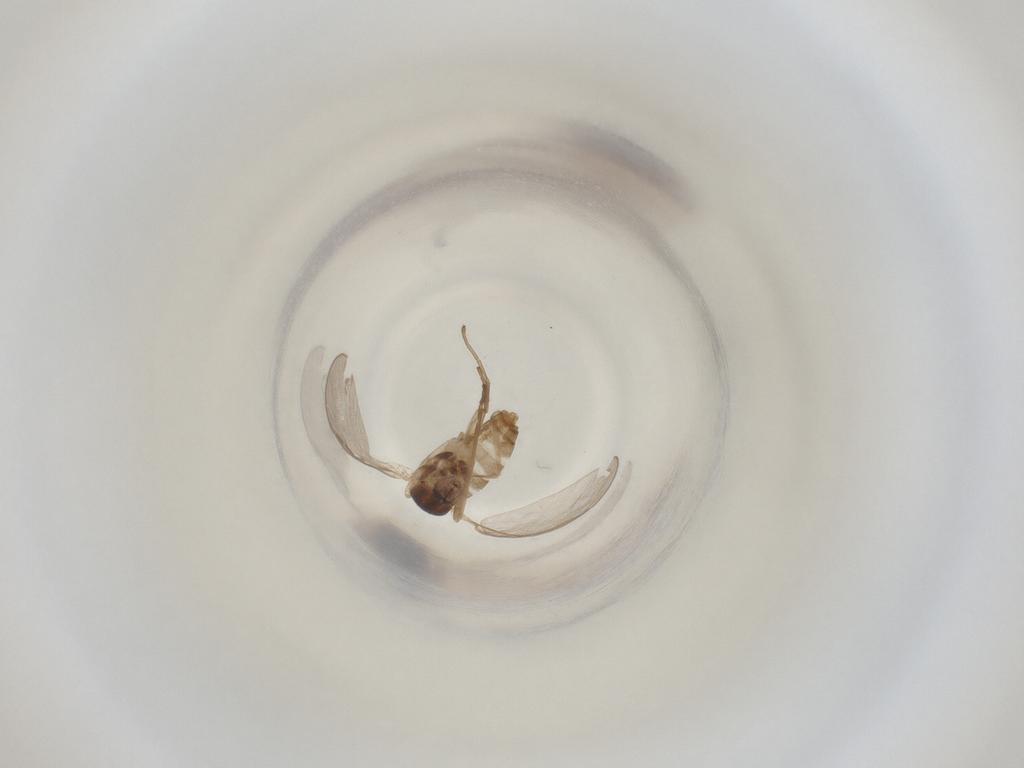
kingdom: Animalia
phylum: Arthropoda
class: Insecta
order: Diptera
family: Cecidomyiidae
